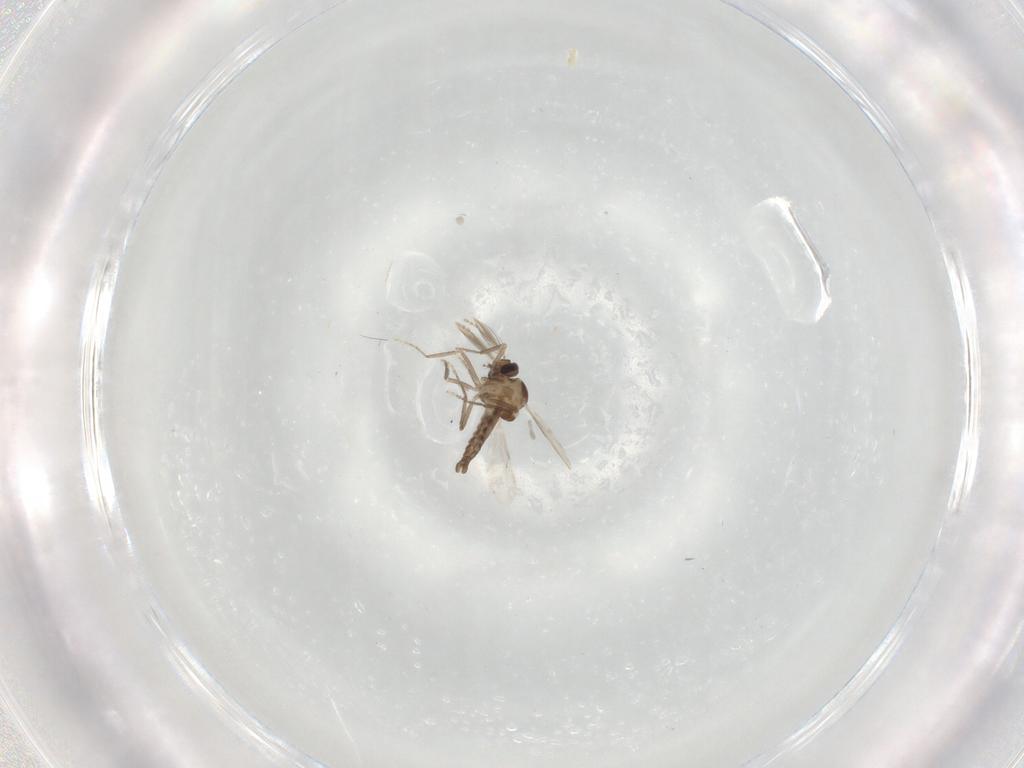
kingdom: Animalia
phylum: Arthropoda
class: Insecta
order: Diptera
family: Ceratopogonidae
